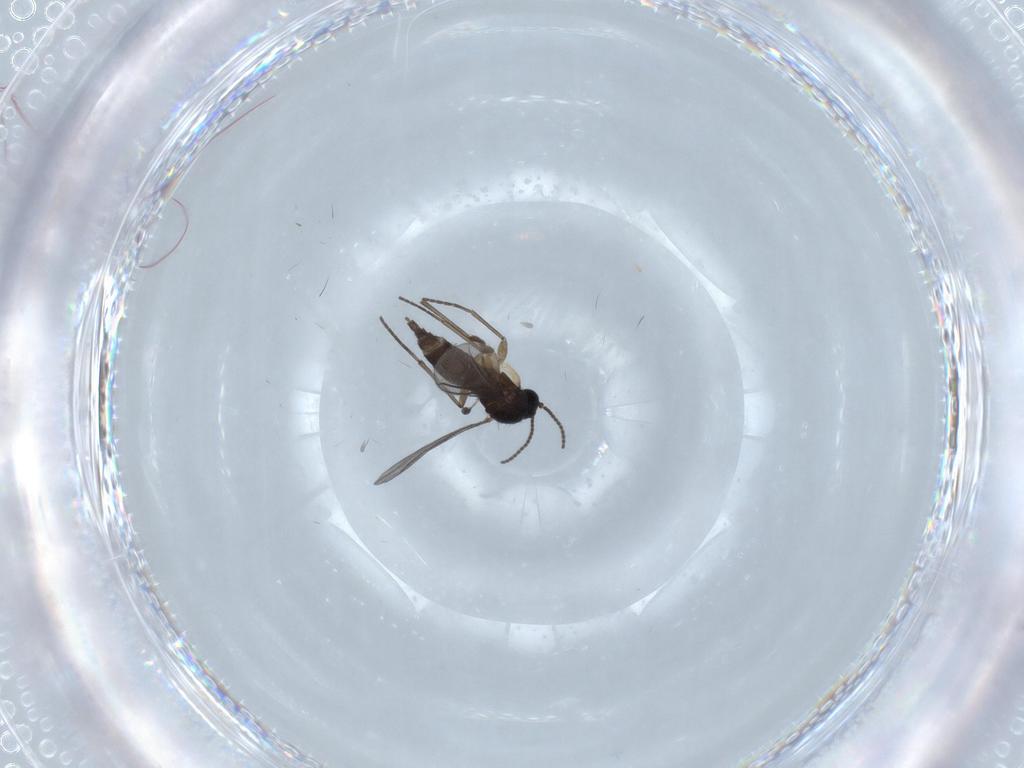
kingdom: Animalia
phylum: Arthropoda
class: Insecta
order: Diptera
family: Sciaridae
